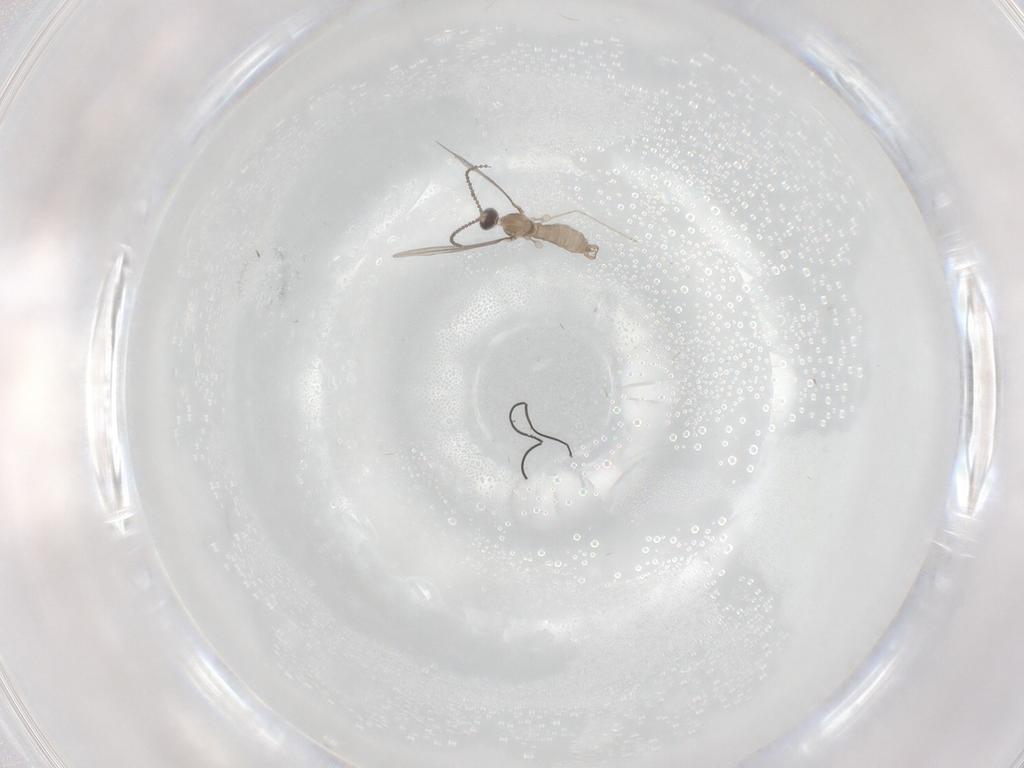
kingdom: Animalia
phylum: Arthropoda
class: Insecta
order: Diptera
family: Cecidomyiidae
